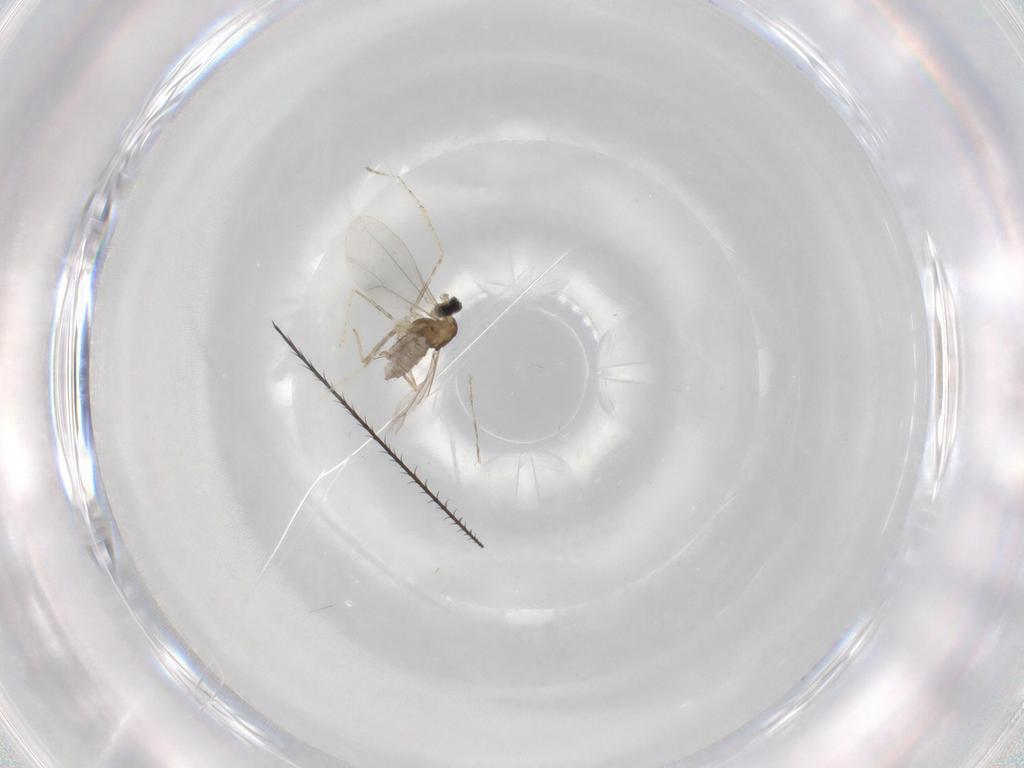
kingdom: Animalia
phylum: Arthropoda
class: Insecta
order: Diptera
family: Cecidomyiidae
